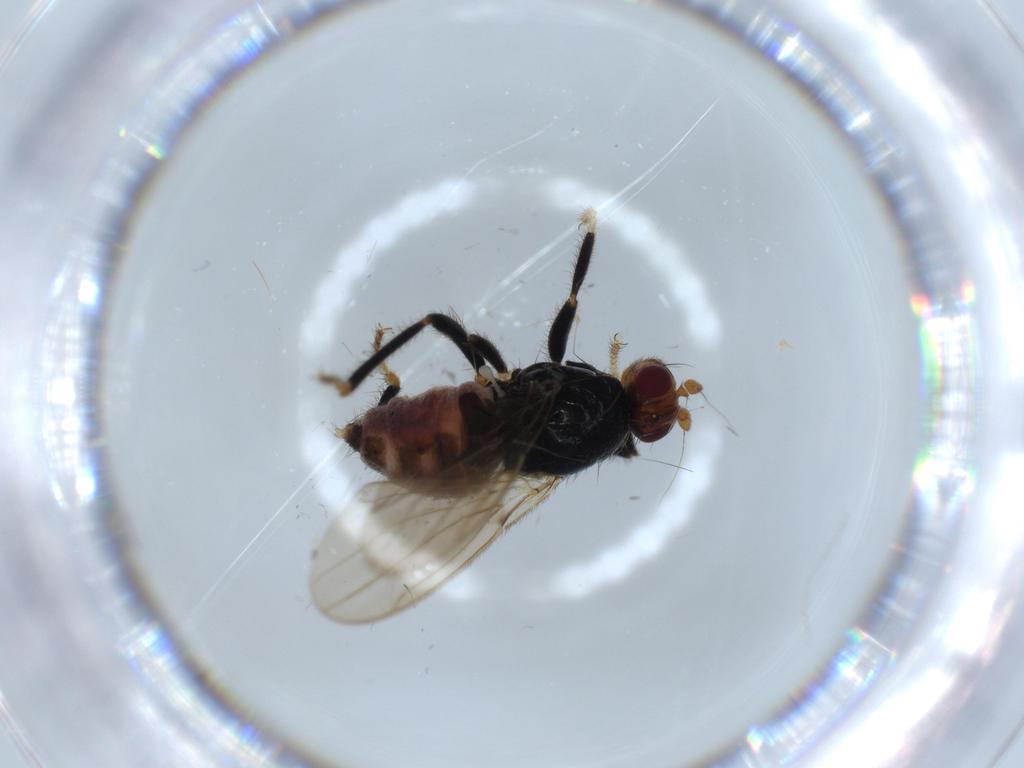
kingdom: Animalia
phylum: Arthropoda
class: Insecta
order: Diptera
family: Sphaeroceridae
